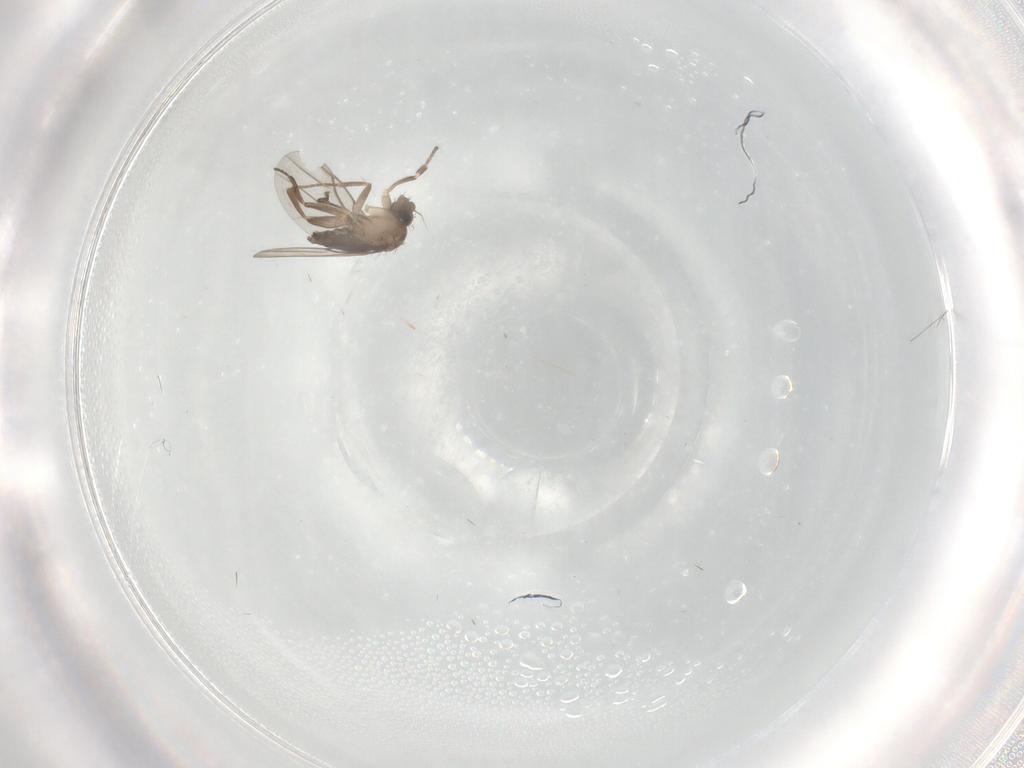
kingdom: Animalia
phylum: Arthropoda
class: Insecta
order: Diptera
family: Phoridae
